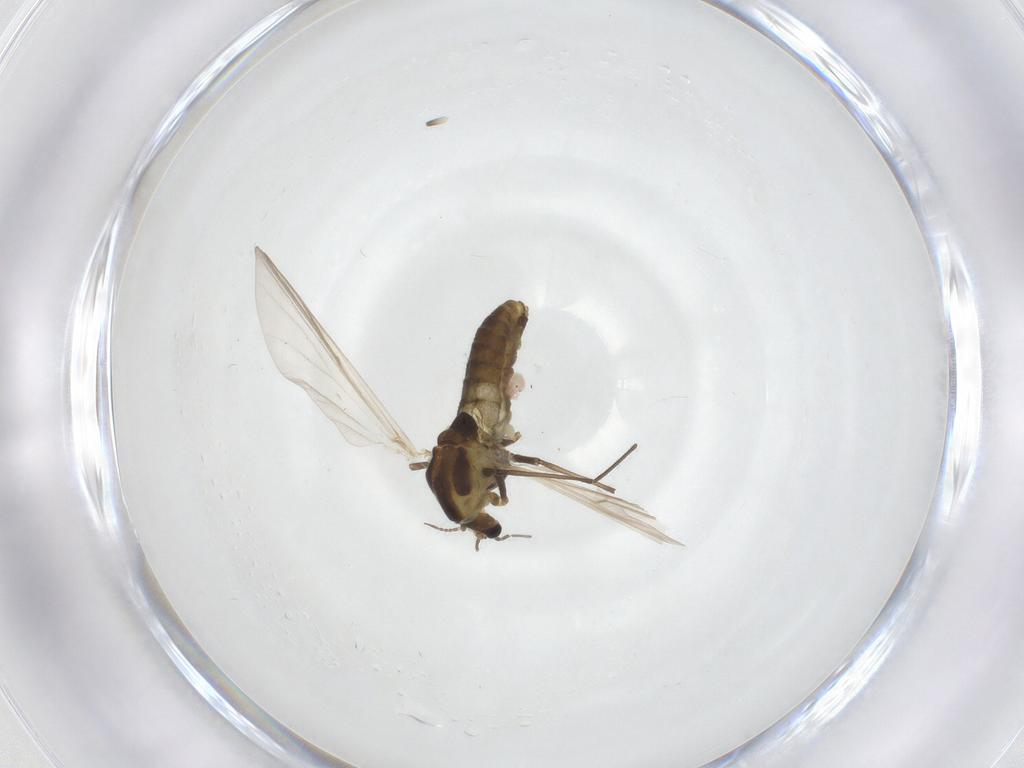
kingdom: Animalia
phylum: Arthropoda
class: Insecta
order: Diptera
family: Chironomidae
